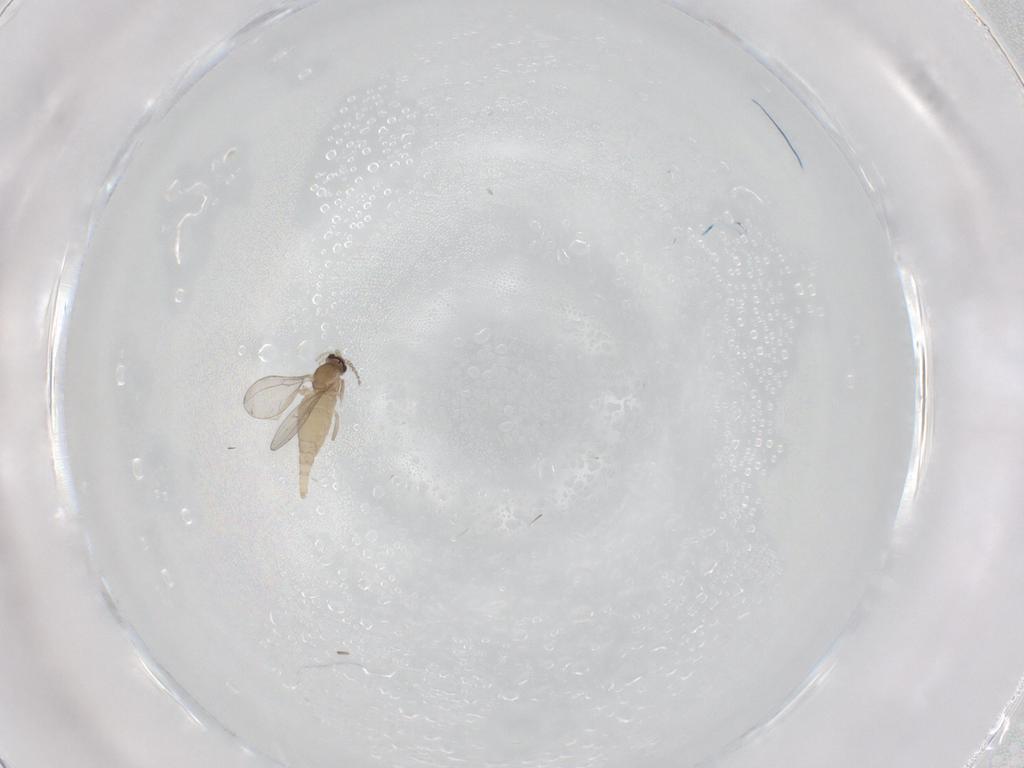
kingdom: Animalia
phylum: Arthropoda
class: Insecta
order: Diptera
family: Cecidomyiidae
